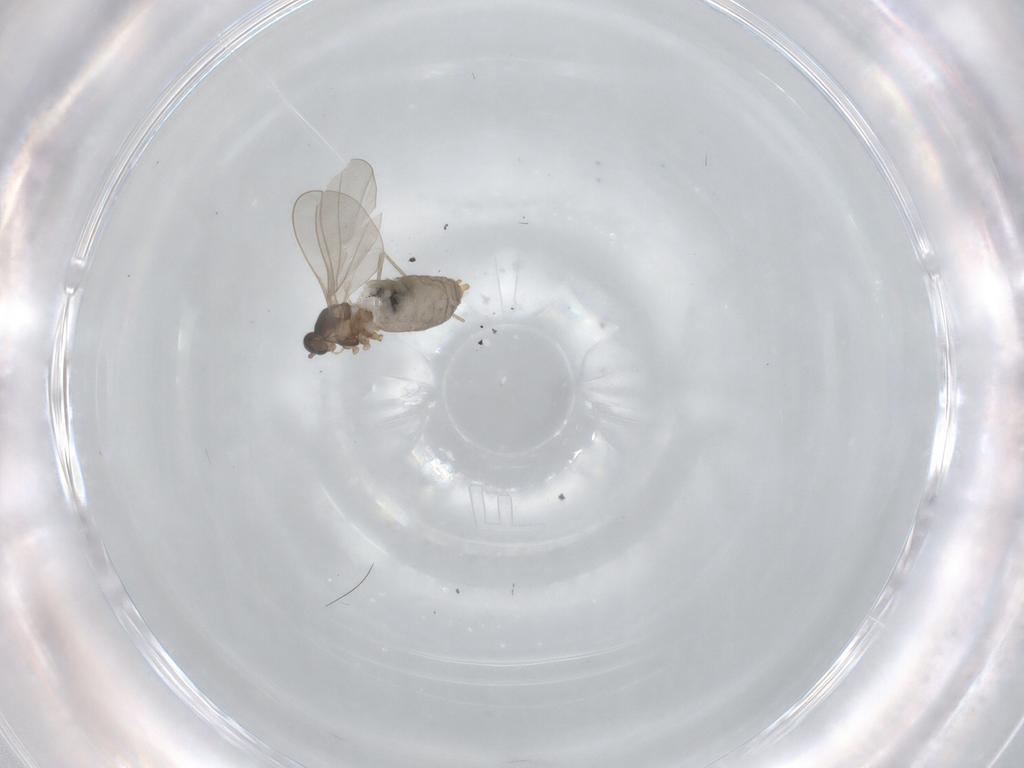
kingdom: Animalia
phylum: Arthropoda
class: Insecta
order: Diptera
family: Cecidomyiidae
